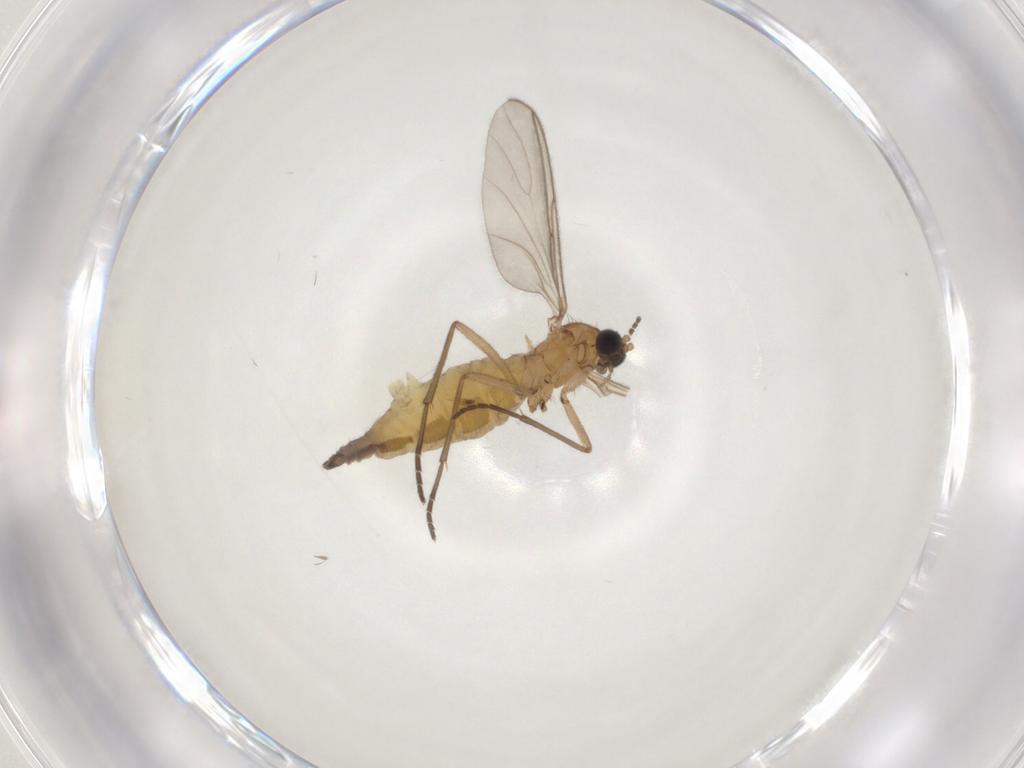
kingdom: Animalia
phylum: Arthropoda
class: Insecta
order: Diptera
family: Sciaridae
